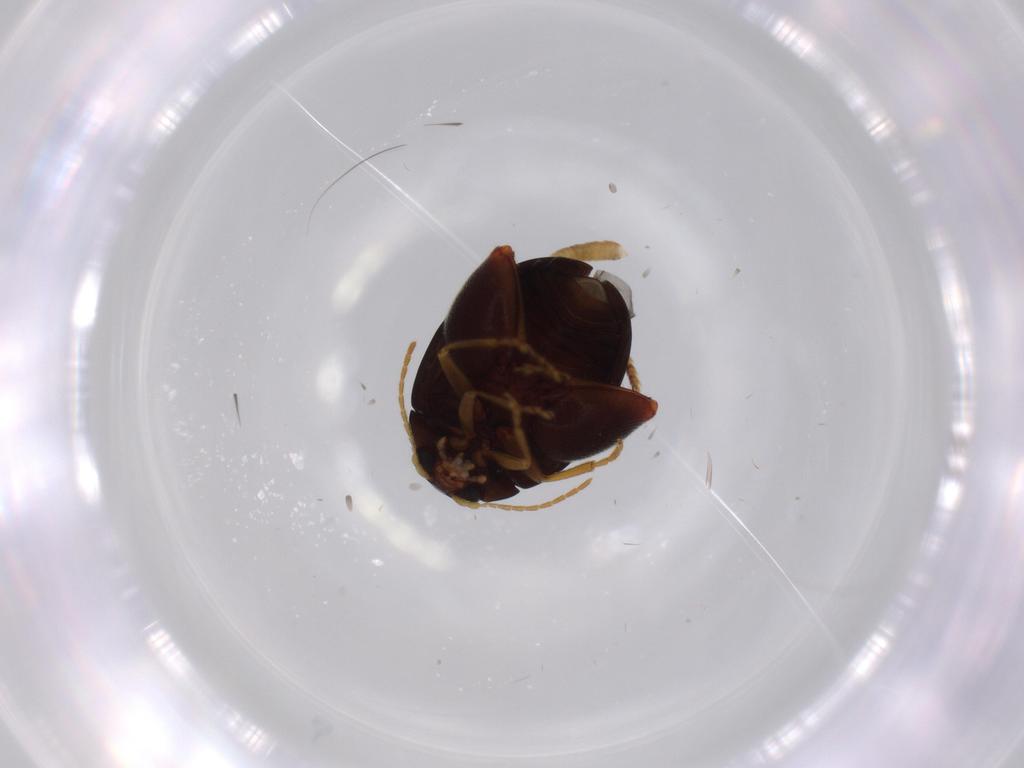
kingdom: Animalia
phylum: Arthropoda
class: Insecta
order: Coleoptera
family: Chrysomelidae
